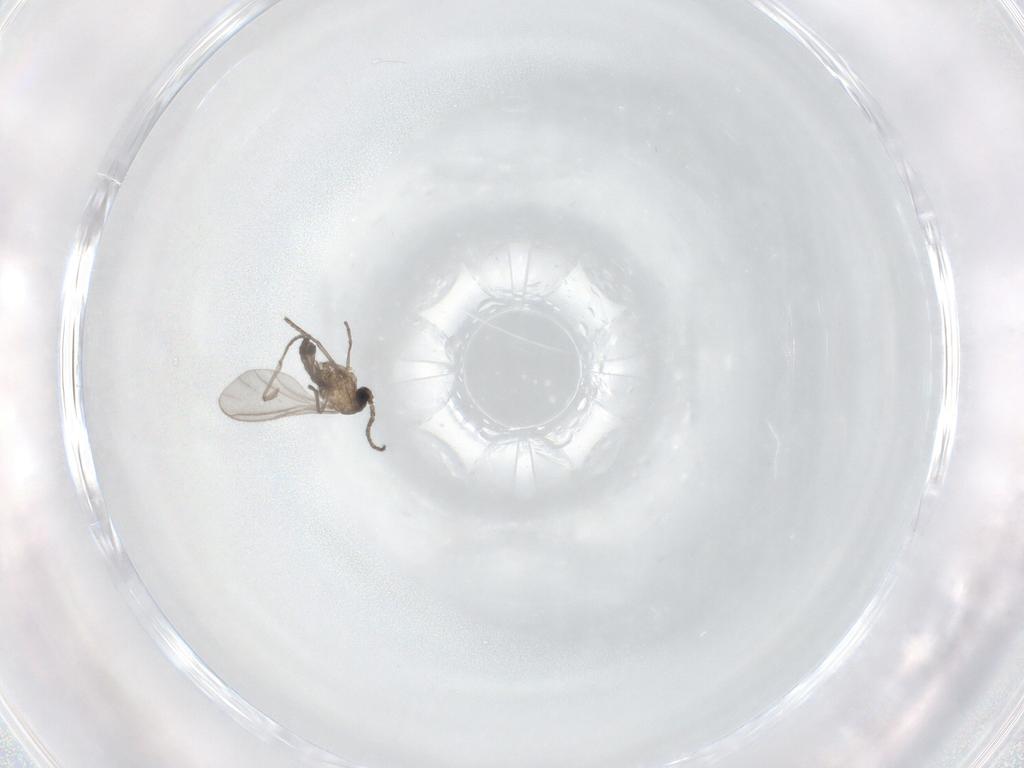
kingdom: Animalia
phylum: Arthropoda
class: Insecta
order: Diptera
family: Sciaridae
